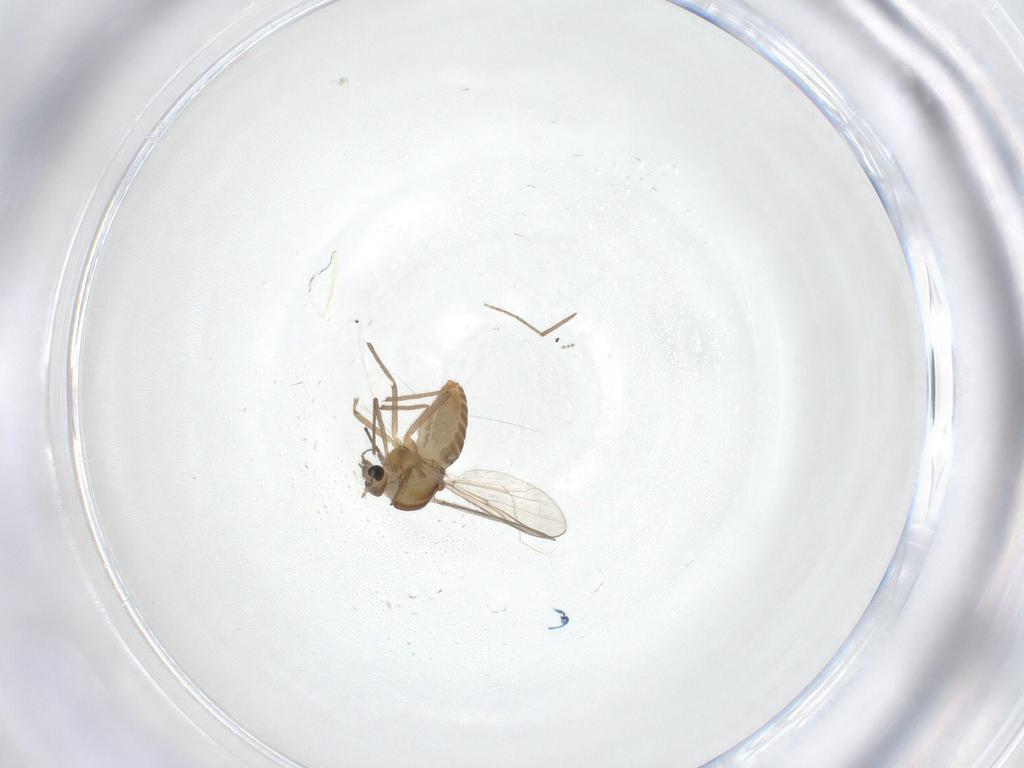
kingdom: Animalia
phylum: Arthropoda
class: Insecta
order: Diptera
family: Chironomidae
